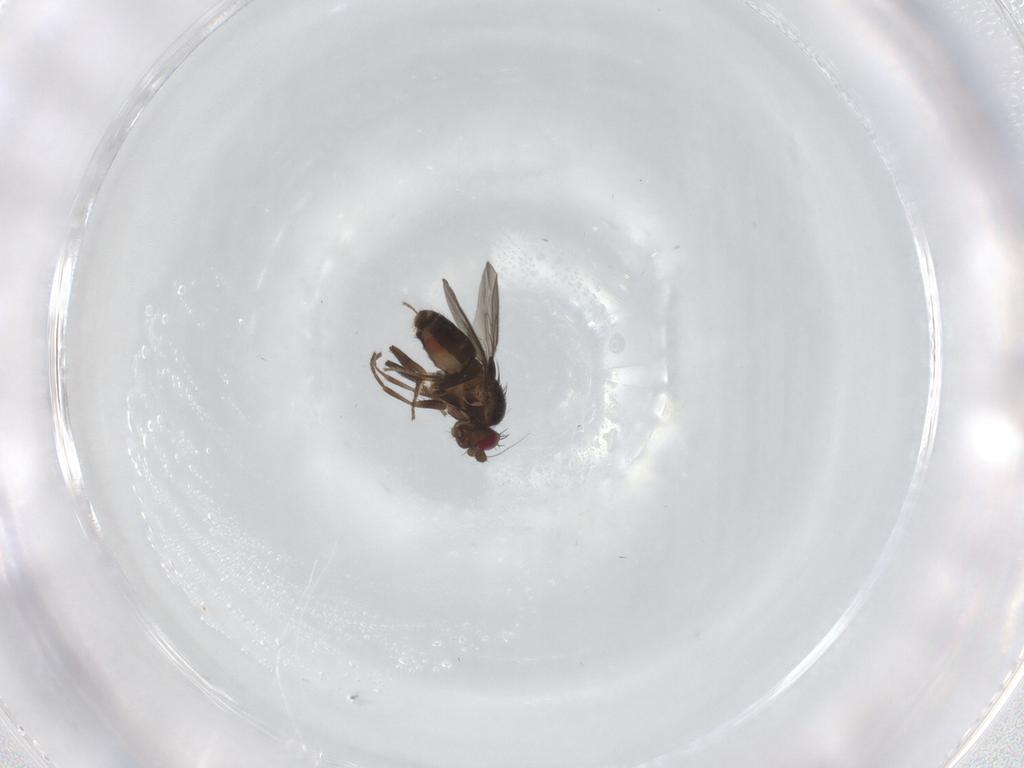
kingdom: Animalia
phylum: Arthropoda
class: Insecta
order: Diptera
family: Sphaeroceridae
